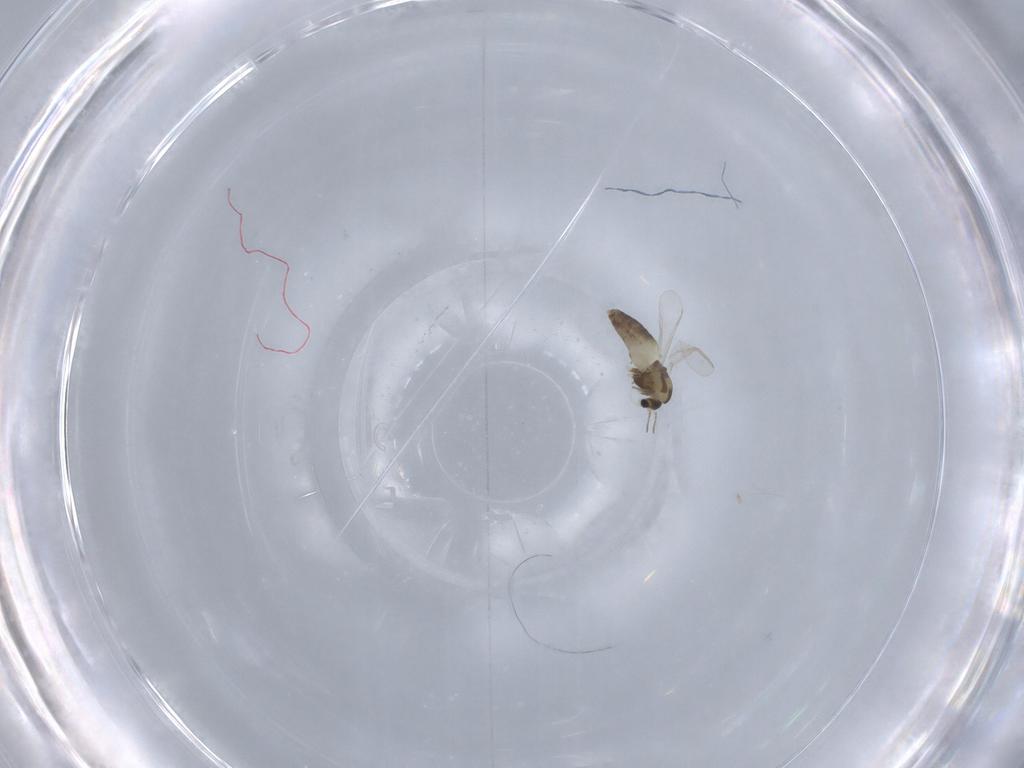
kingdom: Animalia
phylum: Arthropoda
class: Insecta
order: Diptera
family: Chironomidae
